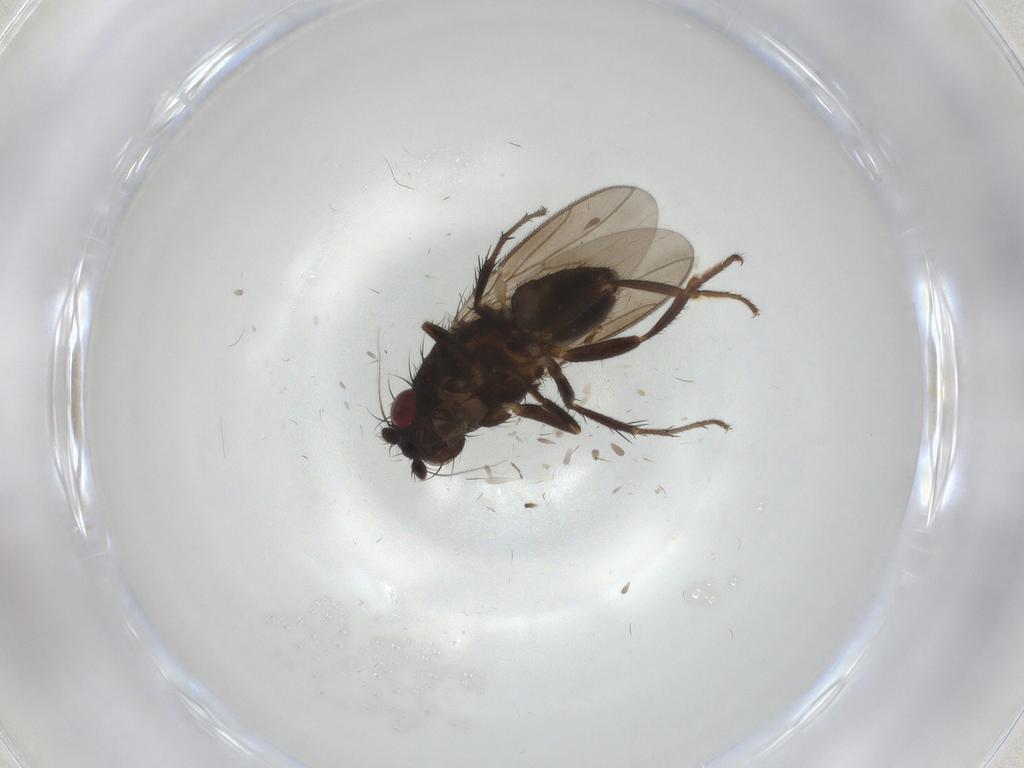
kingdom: Animalia
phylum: Arthropoda
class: Insecta
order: Diptera
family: Sphaeroceridae
